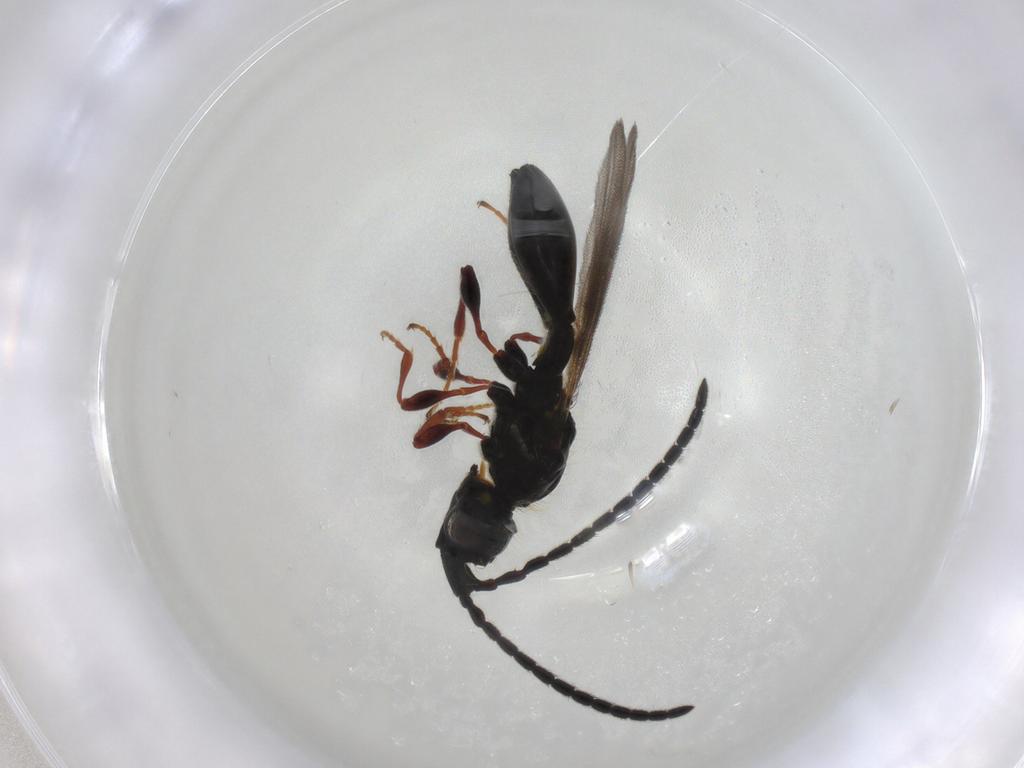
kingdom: Animalia
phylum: Arthropoda
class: Insecta
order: Hymenoptera
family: Diapriidae
